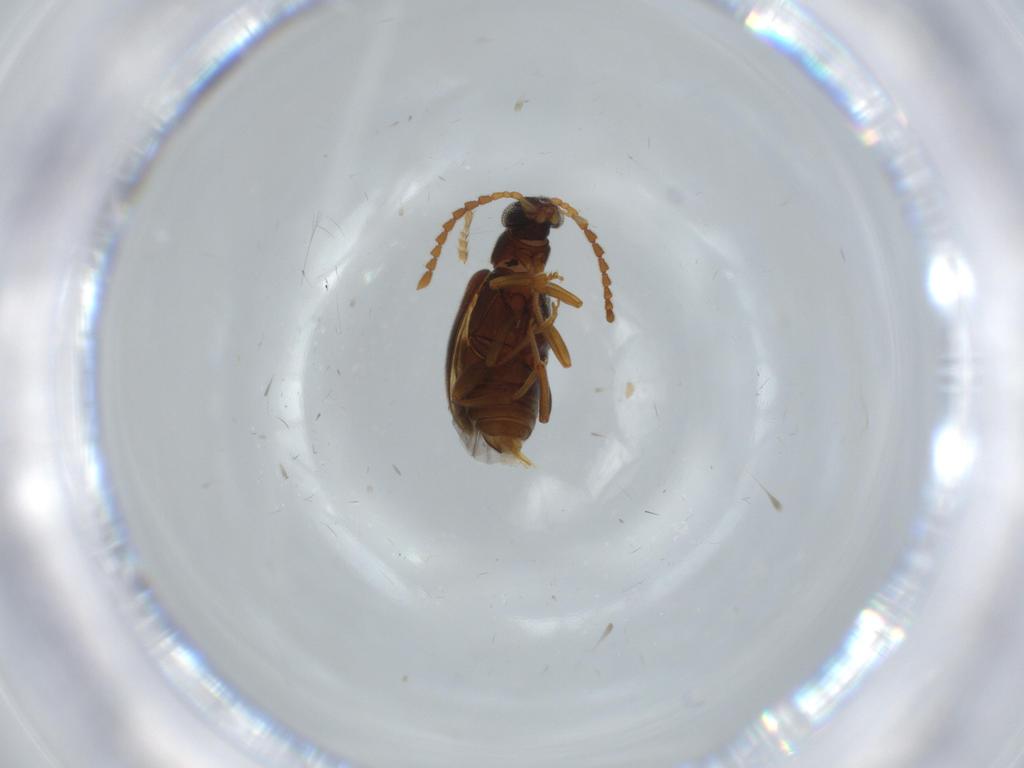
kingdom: Animalia
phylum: Arthropoda
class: Insecta
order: Coleoptera
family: Aderidae
